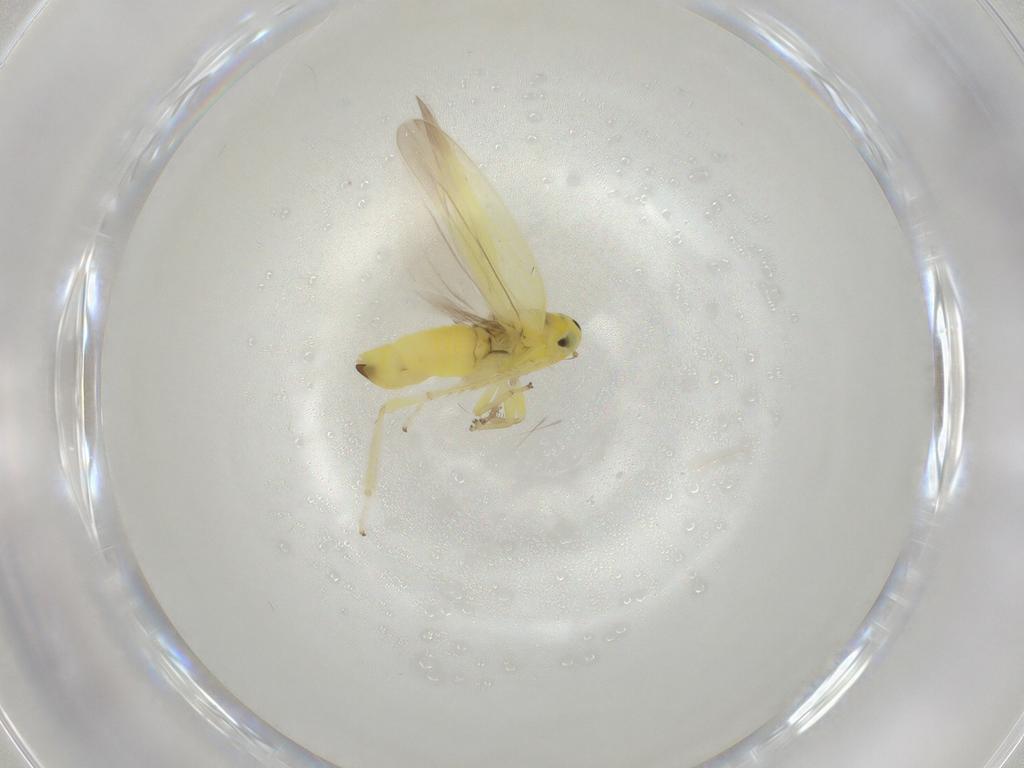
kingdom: Animalia
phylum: Arthropoda
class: Insecta
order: Hemiptera
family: Cicadellidae
